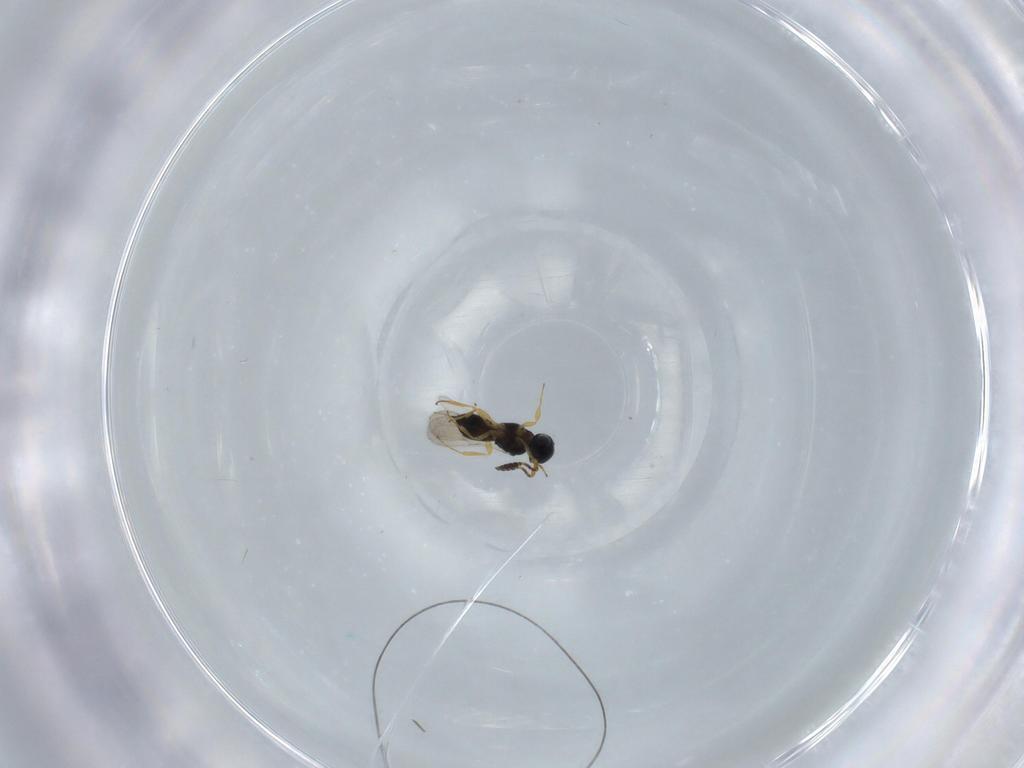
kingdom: Animalia
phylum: Arthropoda
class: Insecta
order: Hymenoptera
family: Scelionidae
